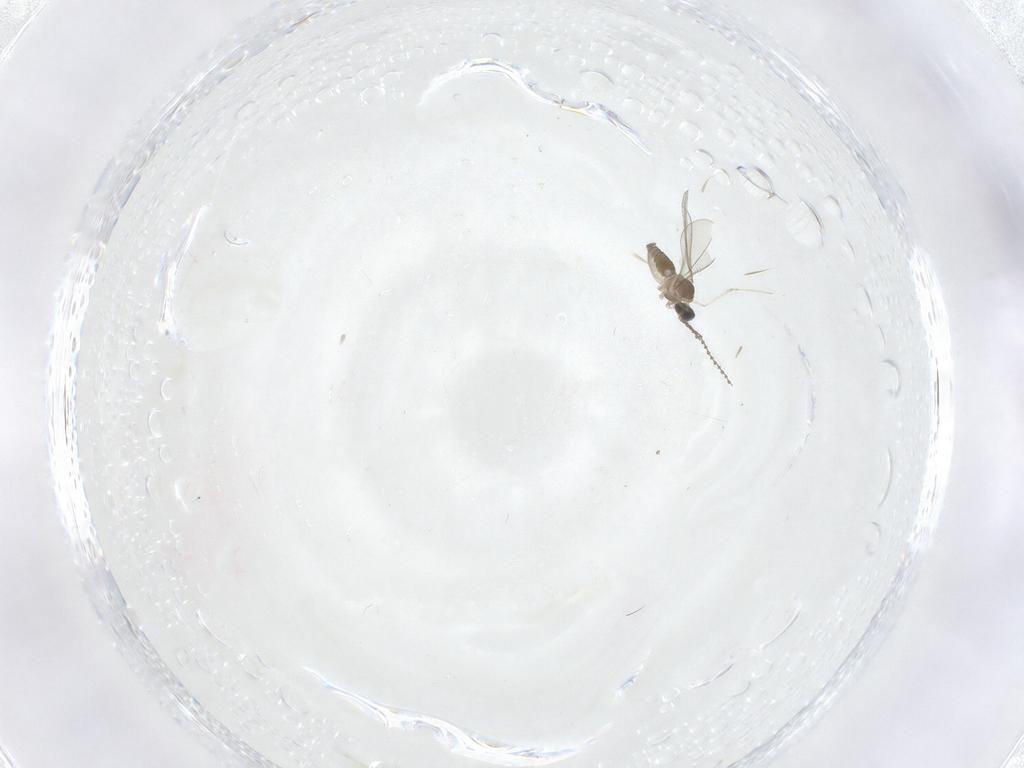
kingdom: Animalia
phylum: Arthropoda
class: Insecta
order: Diptera
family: Cecidomyiidae
